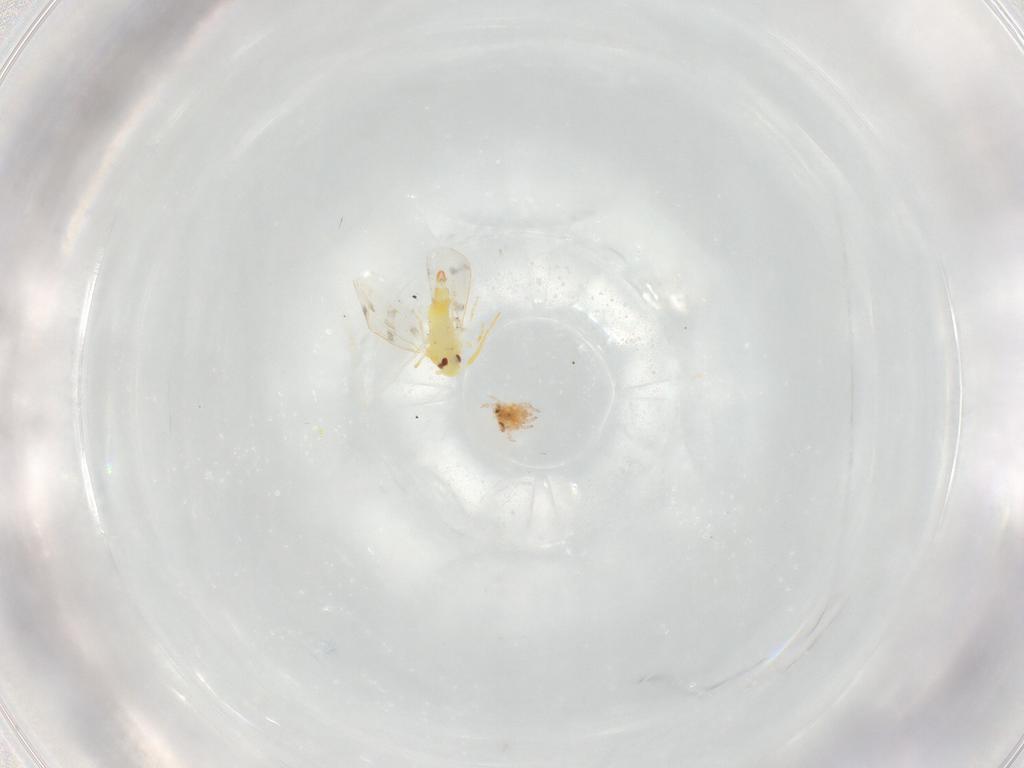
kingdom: Animalia
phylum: Arthropoda
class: Insecta
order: Hemiptera
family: Aleyrodidae
